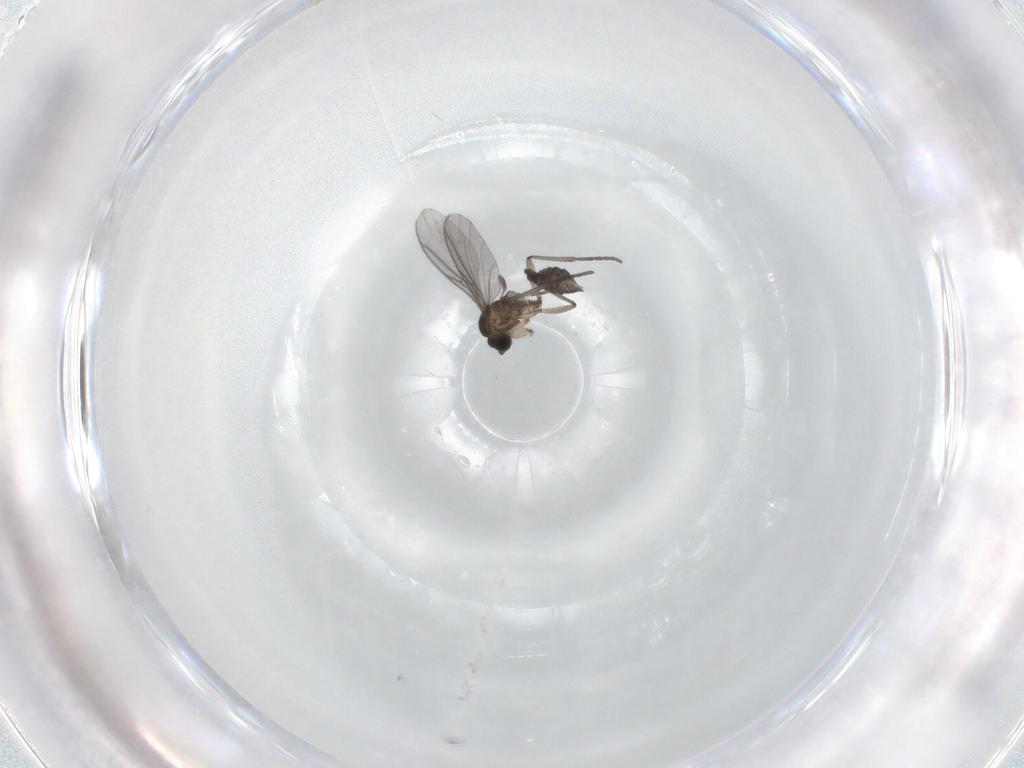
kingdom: Animalia
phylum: Arthropoda
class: Insecta
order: Diptera
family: Sciaridae
